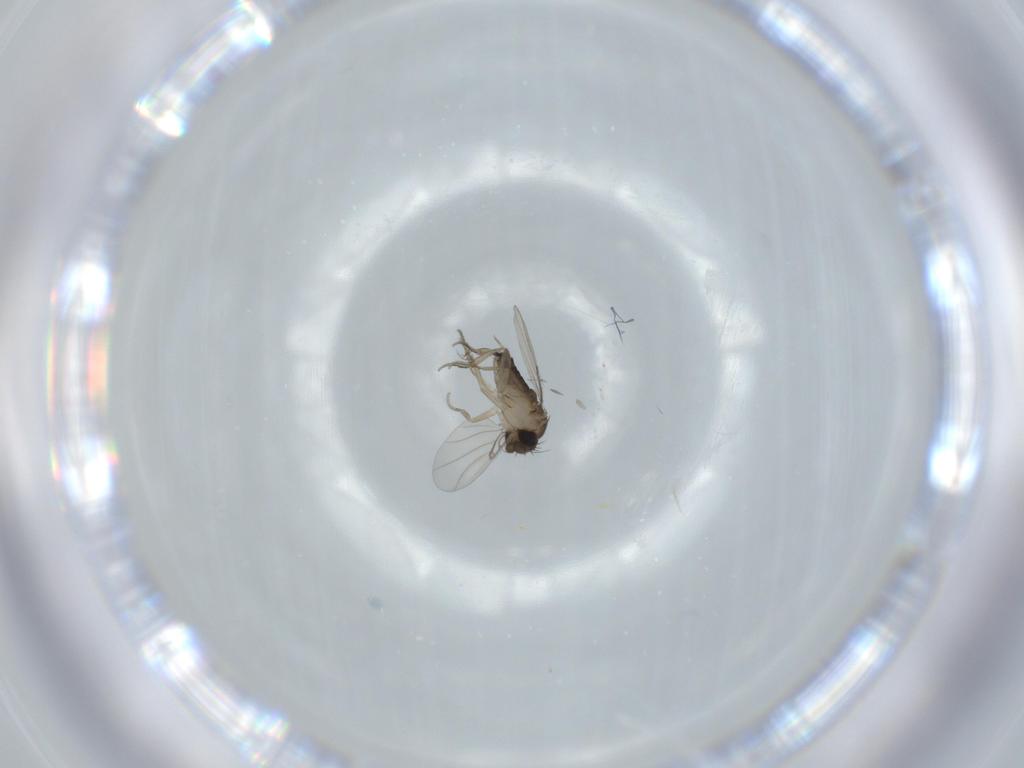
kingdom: Animalia
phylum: Arthropoda
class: Insecta
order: Diptera
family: Phoridae
